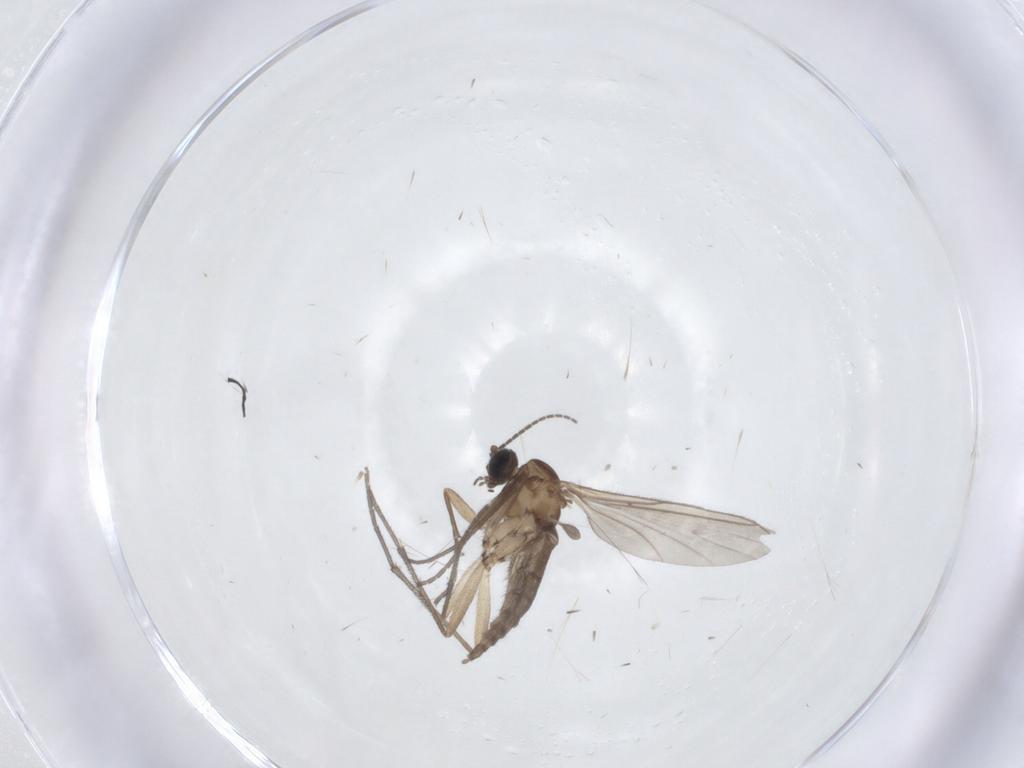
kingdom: Animalia
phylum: Arthropoda
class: Insecta
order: Diptera
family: Sciaridae
